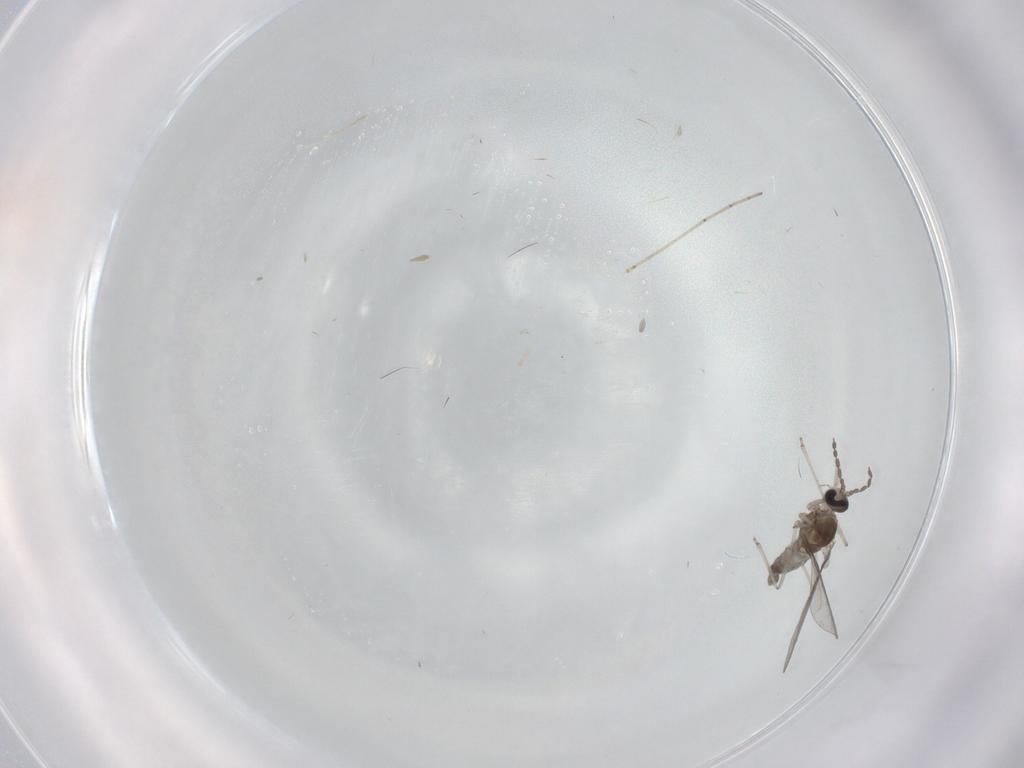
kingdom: Animalia
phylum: Arthropoda
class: Insecta
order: Diptera
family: Cecidomyiidae
